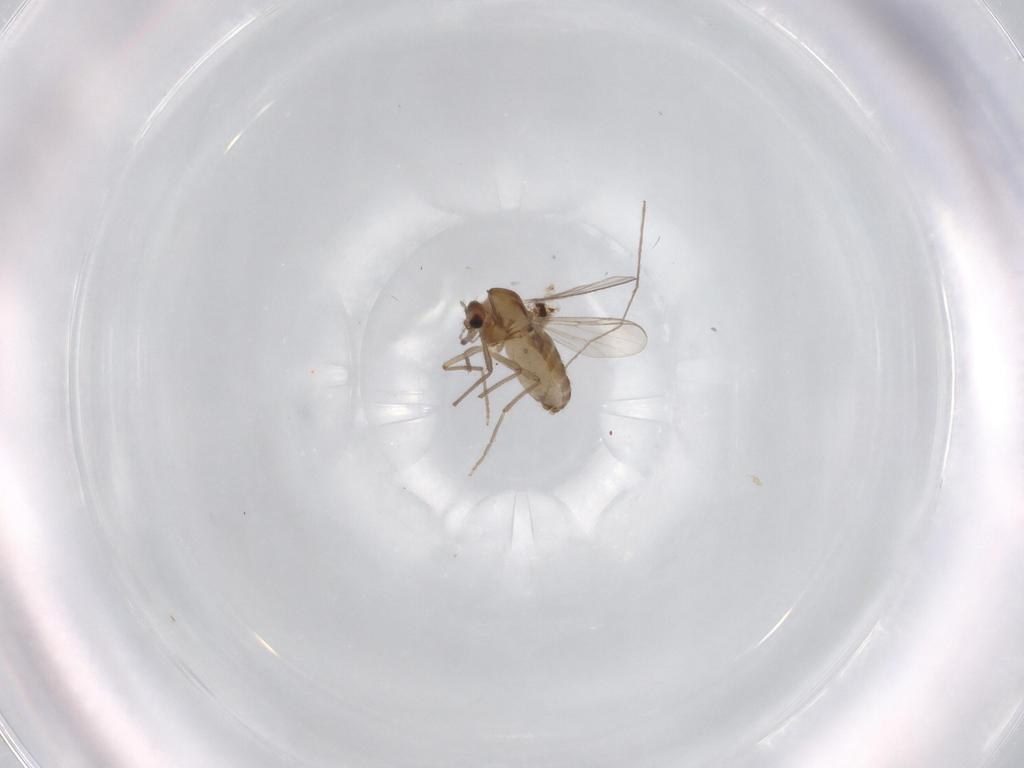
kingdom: Animalia
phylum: Arthropoda
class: Insecta
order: Diptera
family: Chironomidae
